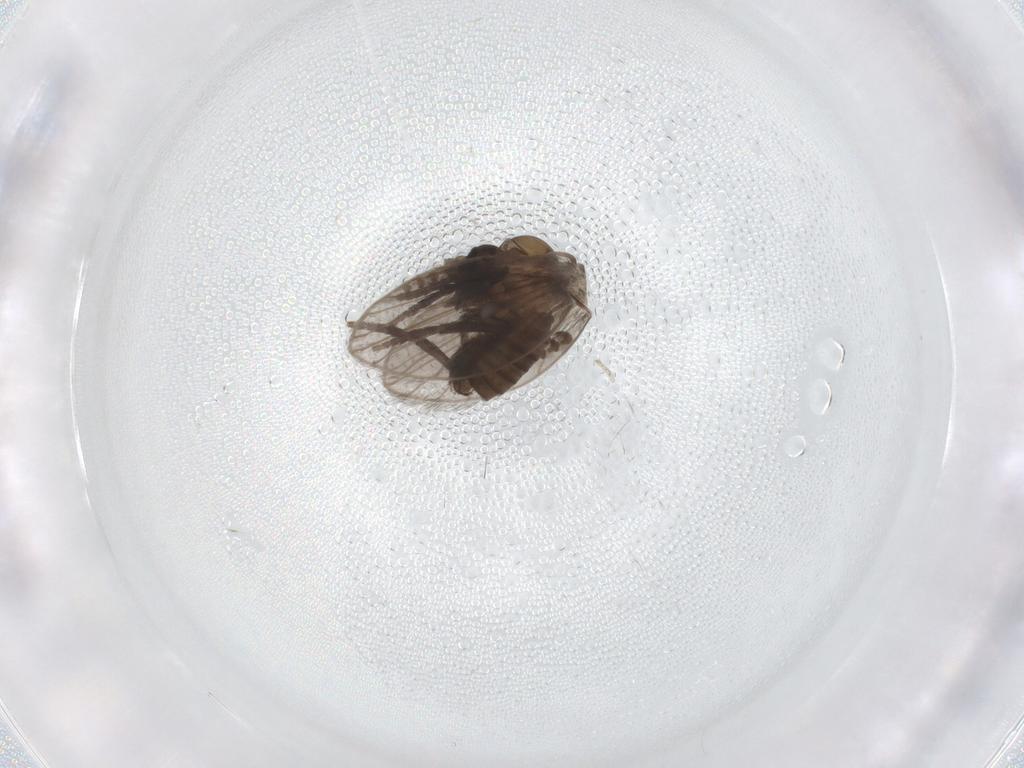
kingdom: Animalia
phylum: Arthropoda
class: Insecta
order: Diptera
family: Psychodidae
